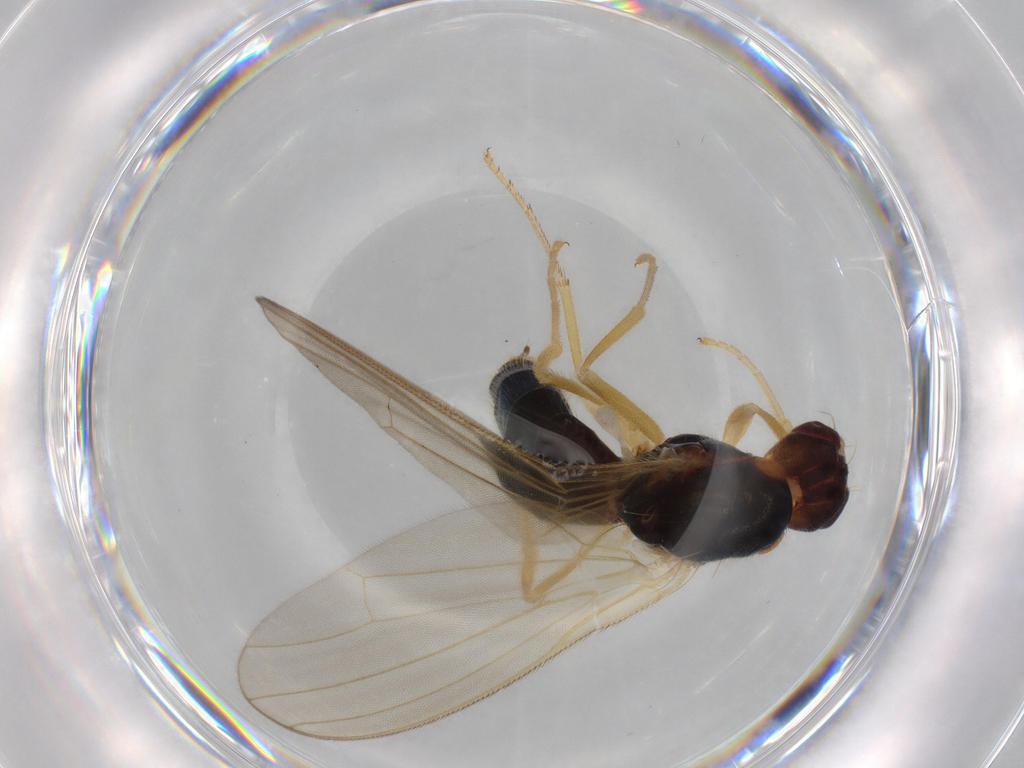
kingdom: Animalia
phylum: Arthropoda
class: Insecta
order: Diptera
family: Psilidae
